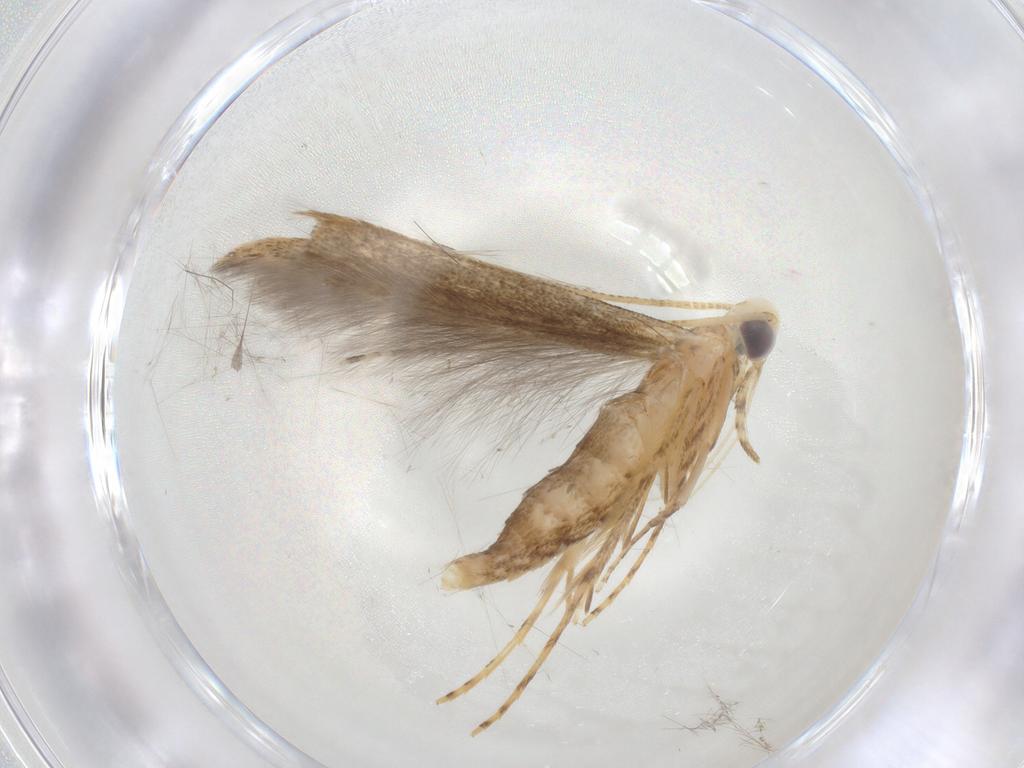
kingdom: Animalia
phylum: Arthropoda
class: Insecta
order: Lepidoptera
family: Batrachedridae
